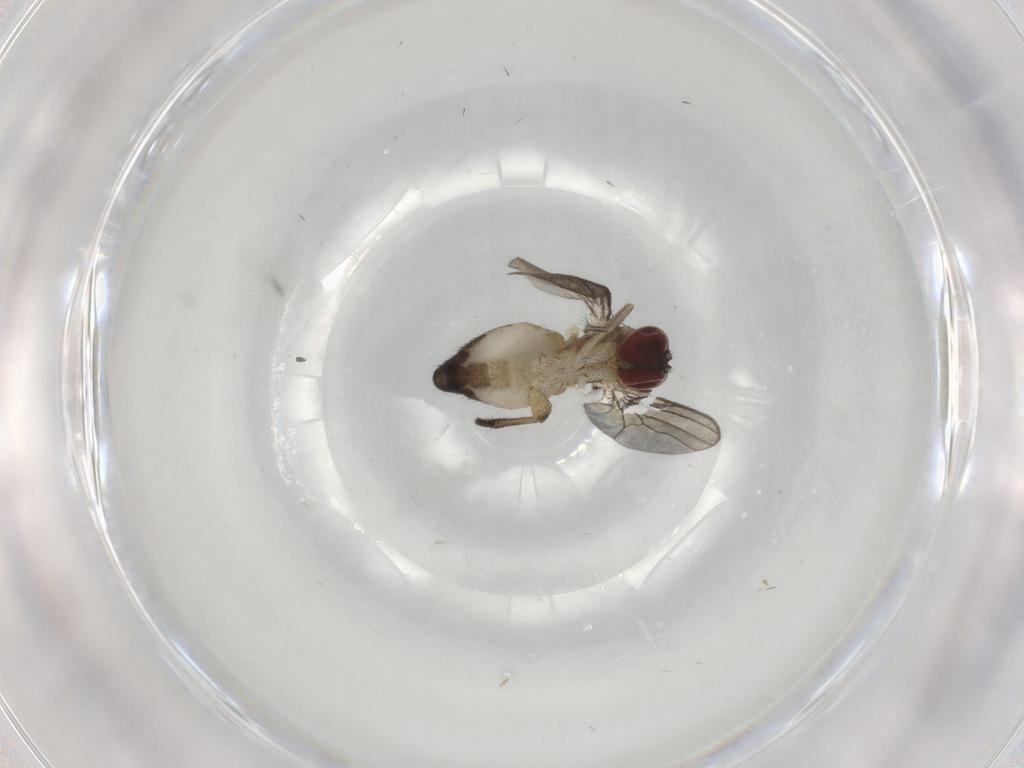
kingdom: Animalia
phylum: Arthropoda
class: Insecta
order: Diptera
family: Dolichopodidae
